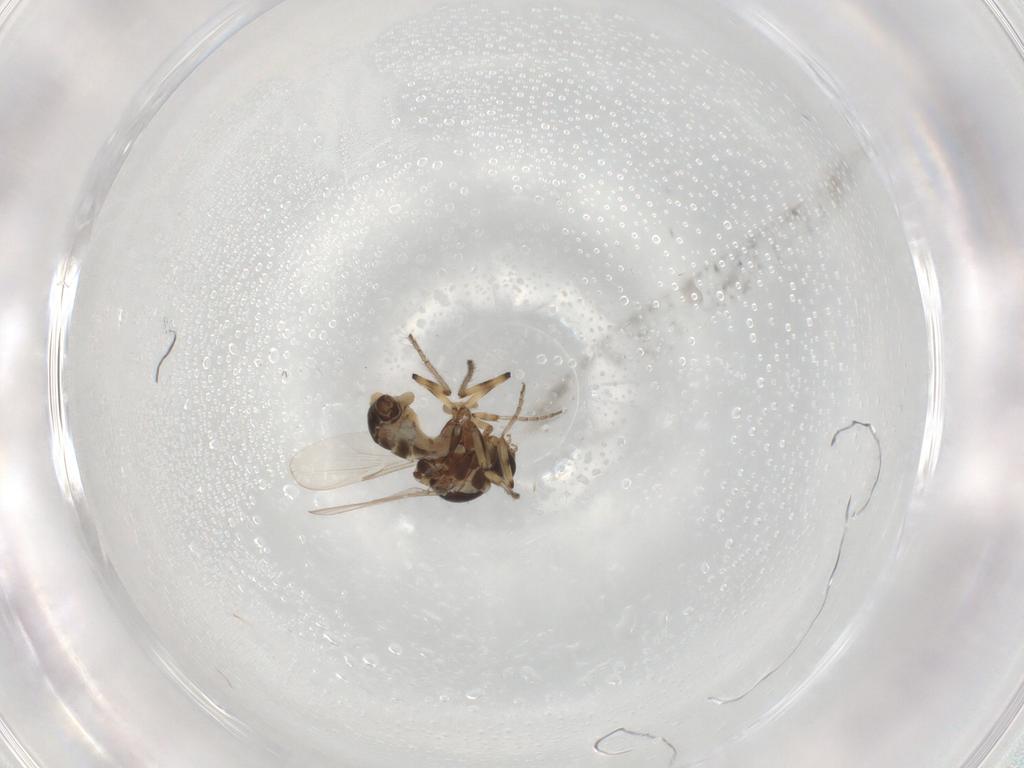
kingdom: Animalia
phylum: Arthropoda
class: Insecta
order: Diptera
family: Ceratopogonidae
